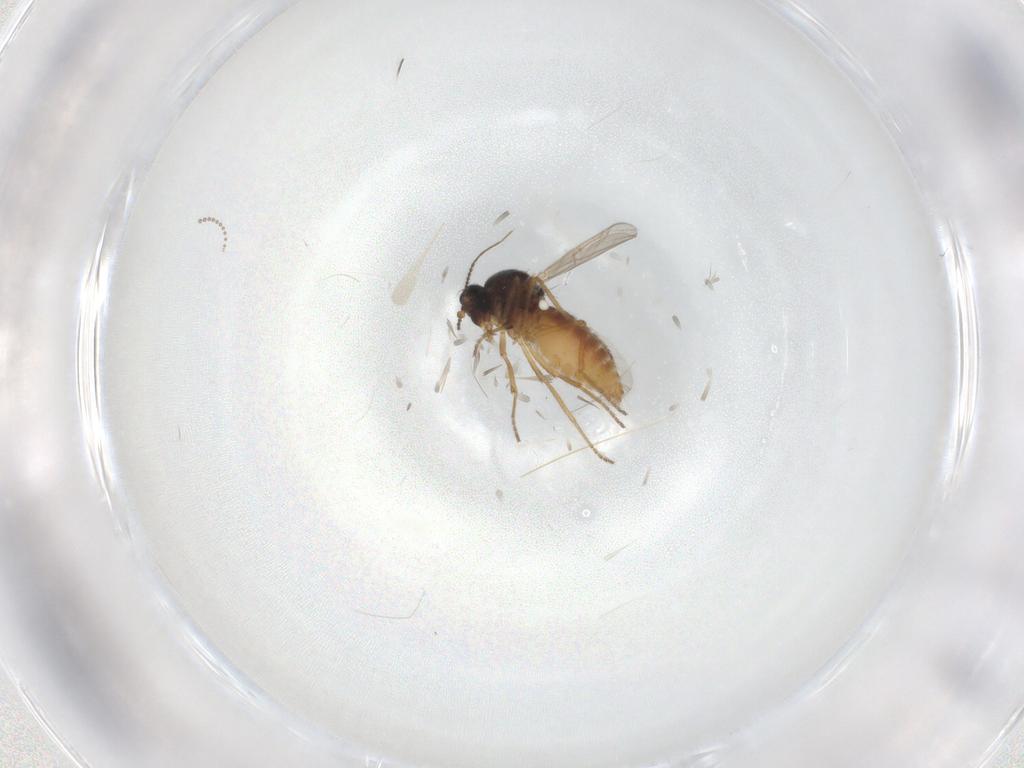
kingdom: Animalia
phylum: Arthropoda
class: Insecta
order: Diptera
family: Ceratopogonidae
